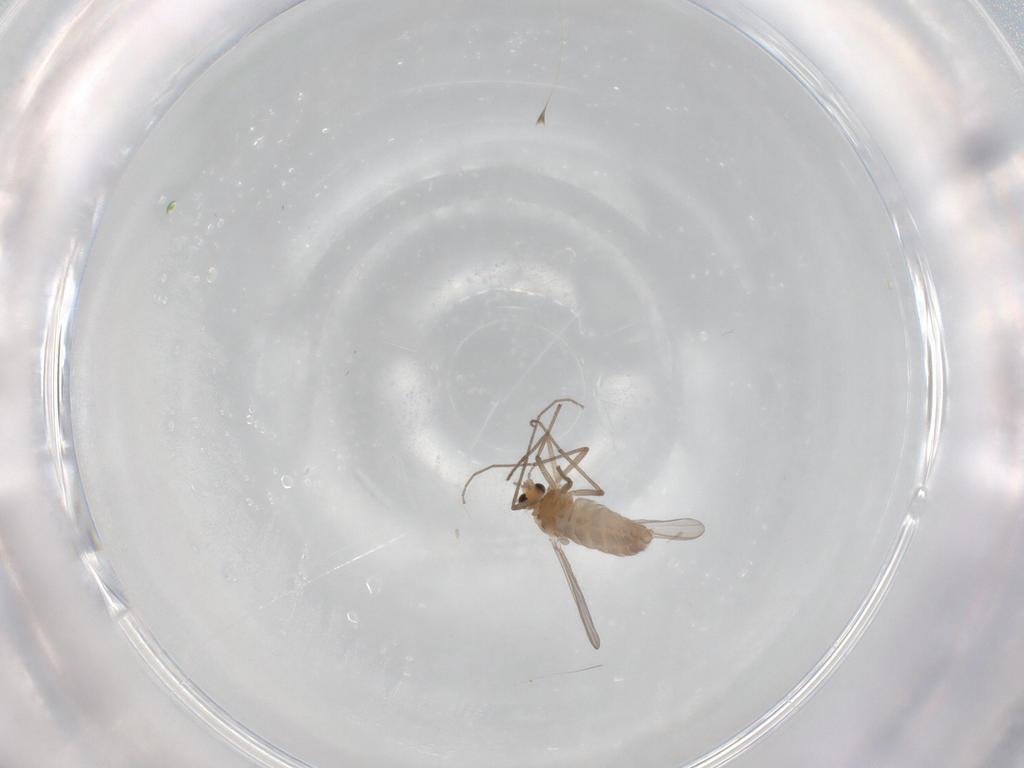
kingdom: Animalia
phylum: Arthropoda
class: Insecta
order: Diptera
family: Chironomidae
